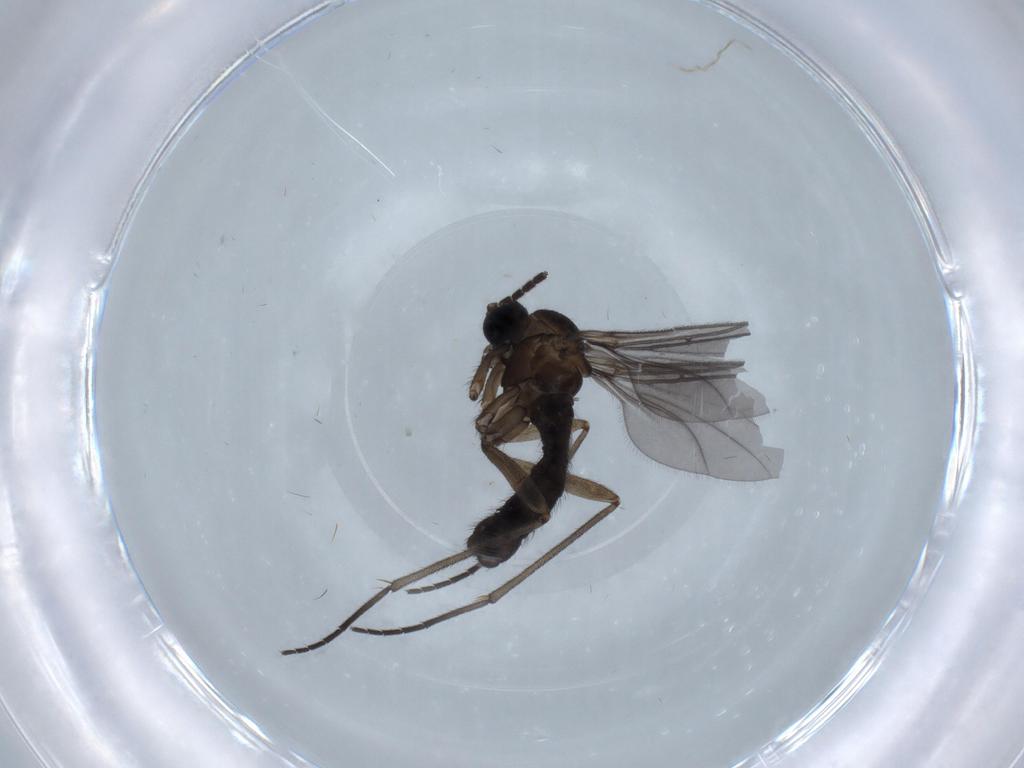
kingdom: Animalia
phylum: Arthropoda
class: Insecta
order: Diptera
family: Sciaridae
